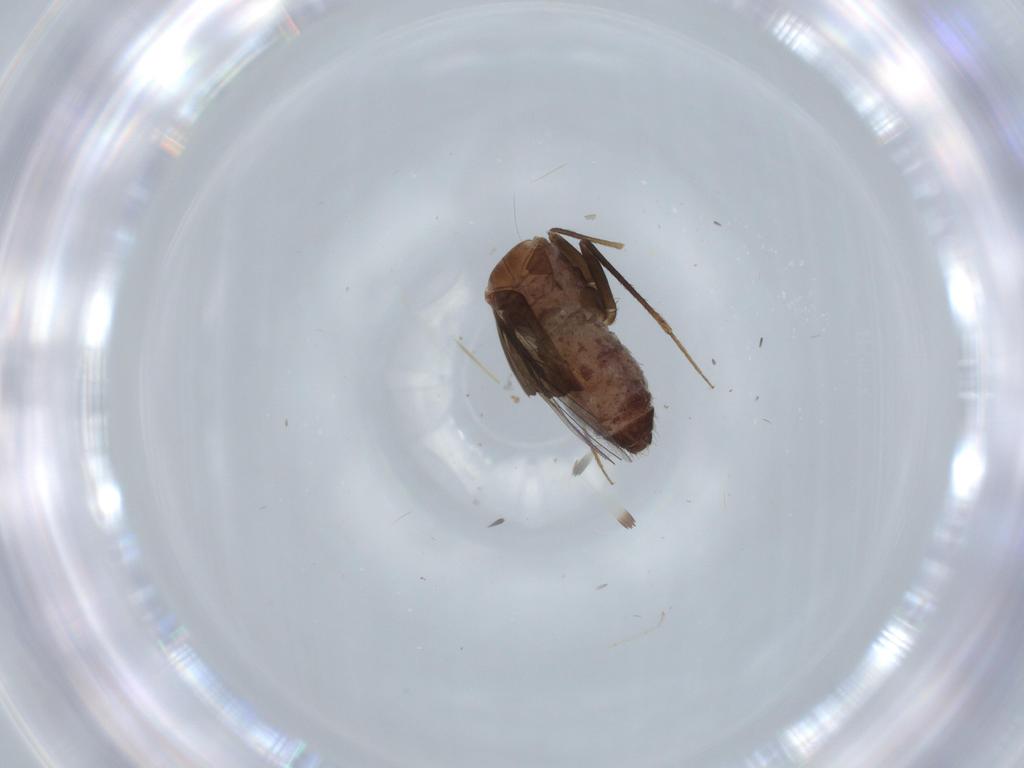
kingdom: Animalia
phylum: Arthropoda
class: Insecta
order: Psocodea
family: Lepidopsocidae
